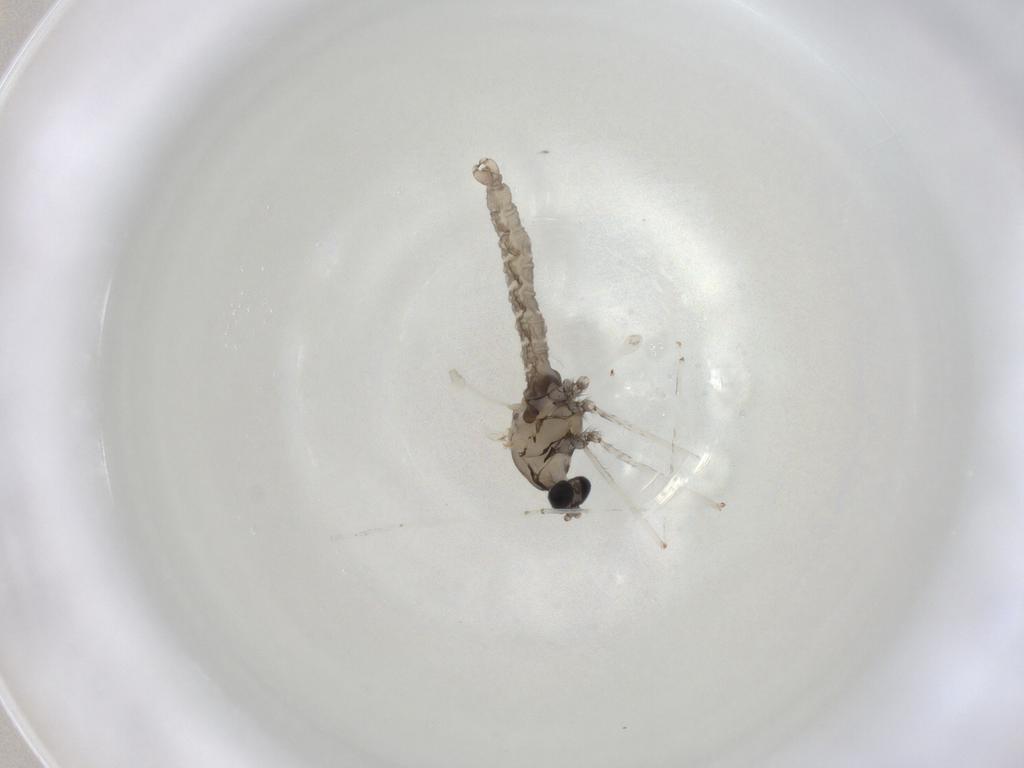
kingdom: Animalia
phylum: Arthropoda
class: Insecta
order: Diptera
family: Cecidomyiidae
